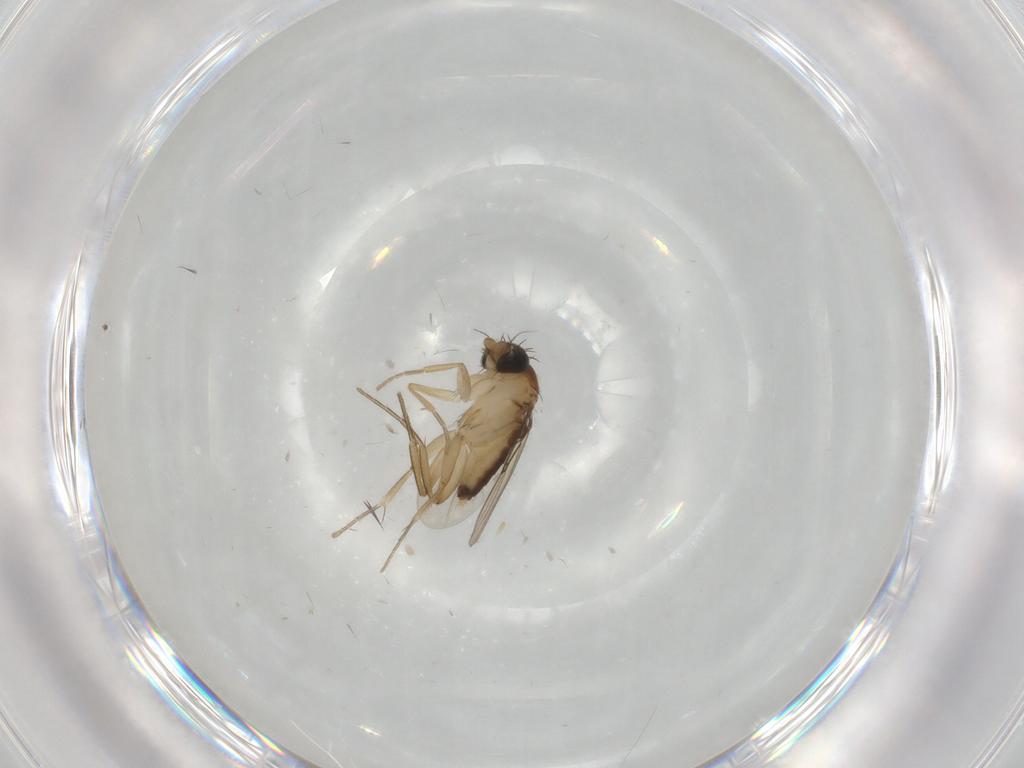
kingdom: Animalia
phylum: Arthropoda
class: Insecta
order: Diptera
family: Phoridae
